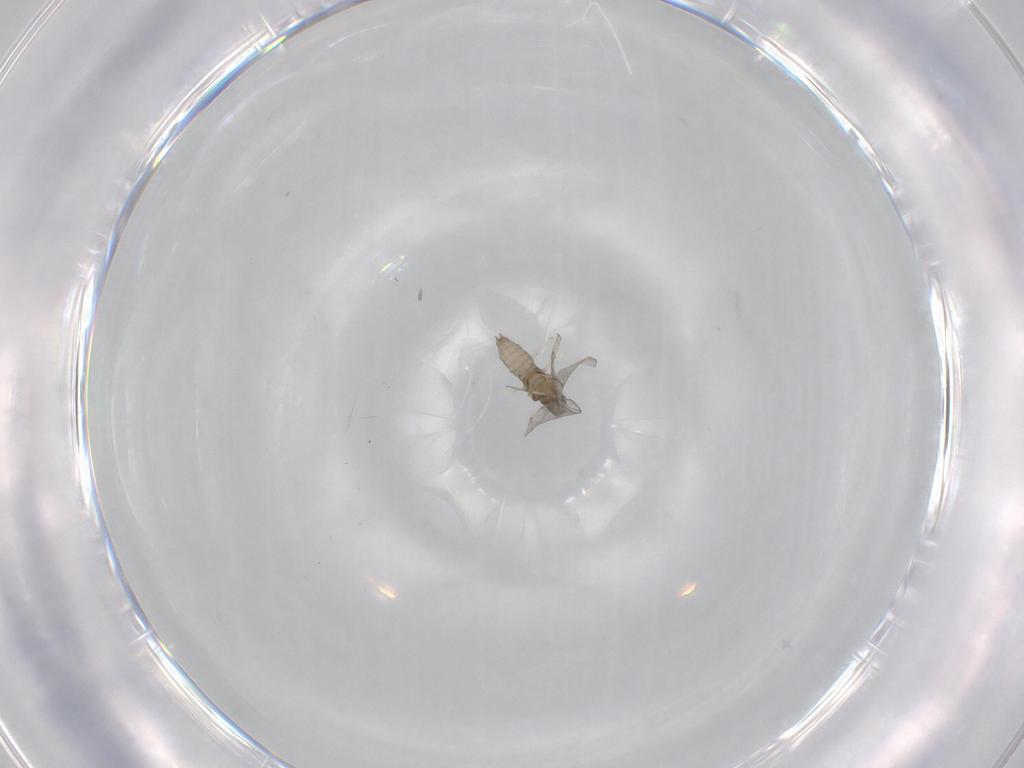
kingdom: Animalia
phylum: Arthropoda
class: Insecta
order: Diptera
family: Cecidomyiidae
